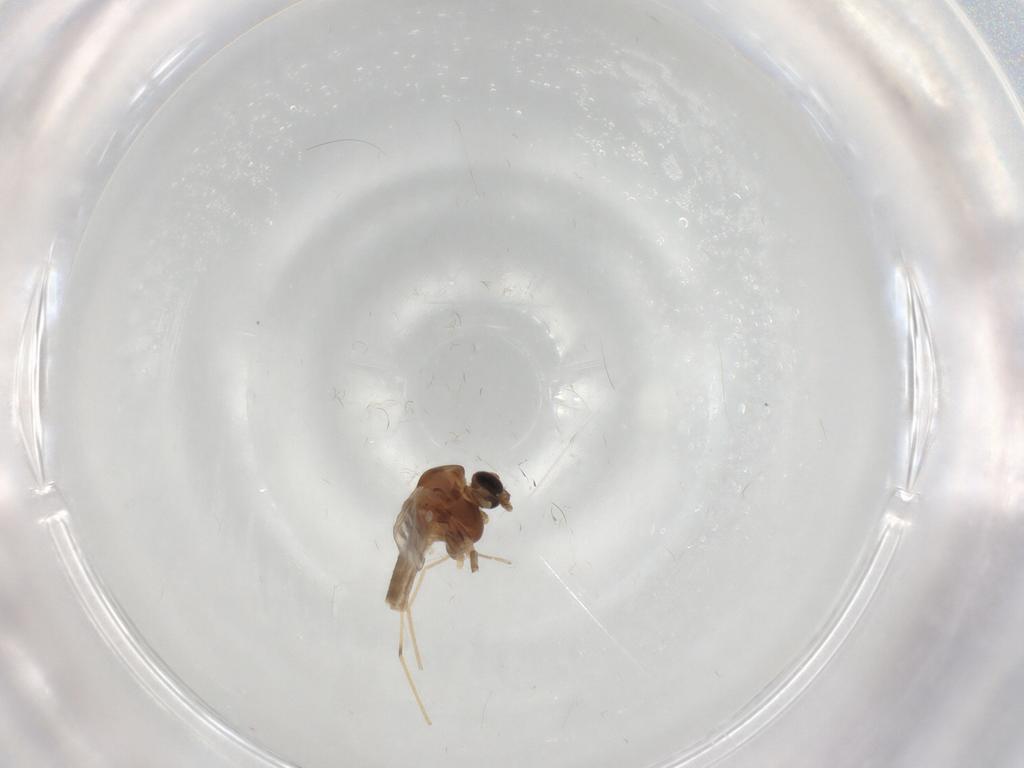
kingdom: Animalia
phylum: Arthropoda
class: Insecta
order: Diptera
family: Chironomidae
